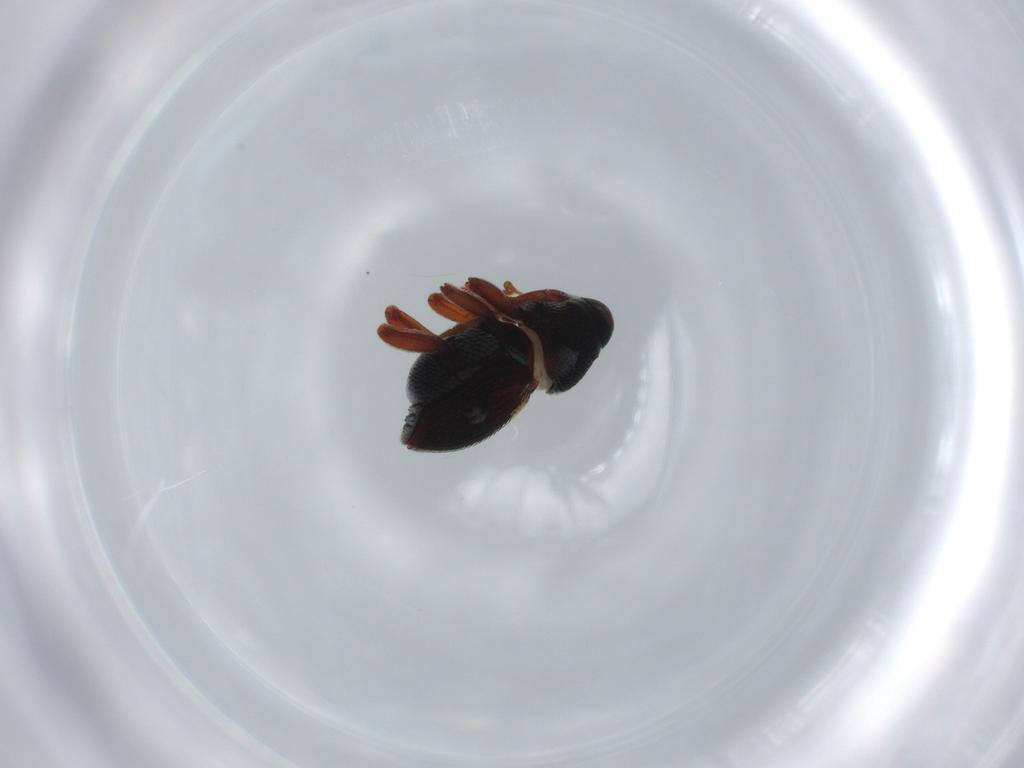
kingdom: Animalia
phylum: Arthropoda
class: Insecta
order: Coleoptera
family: Curculionidae
